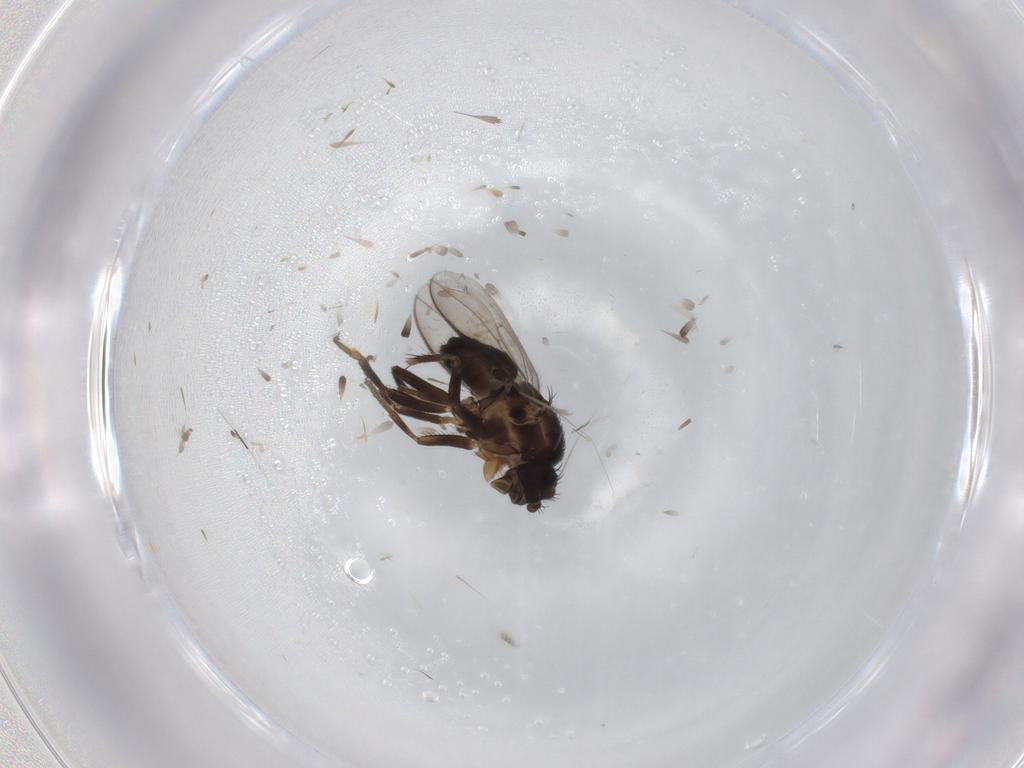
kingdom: Animalia
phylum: Arthropoda
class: Insecta
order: Diptera
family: Sphaeroceridae
